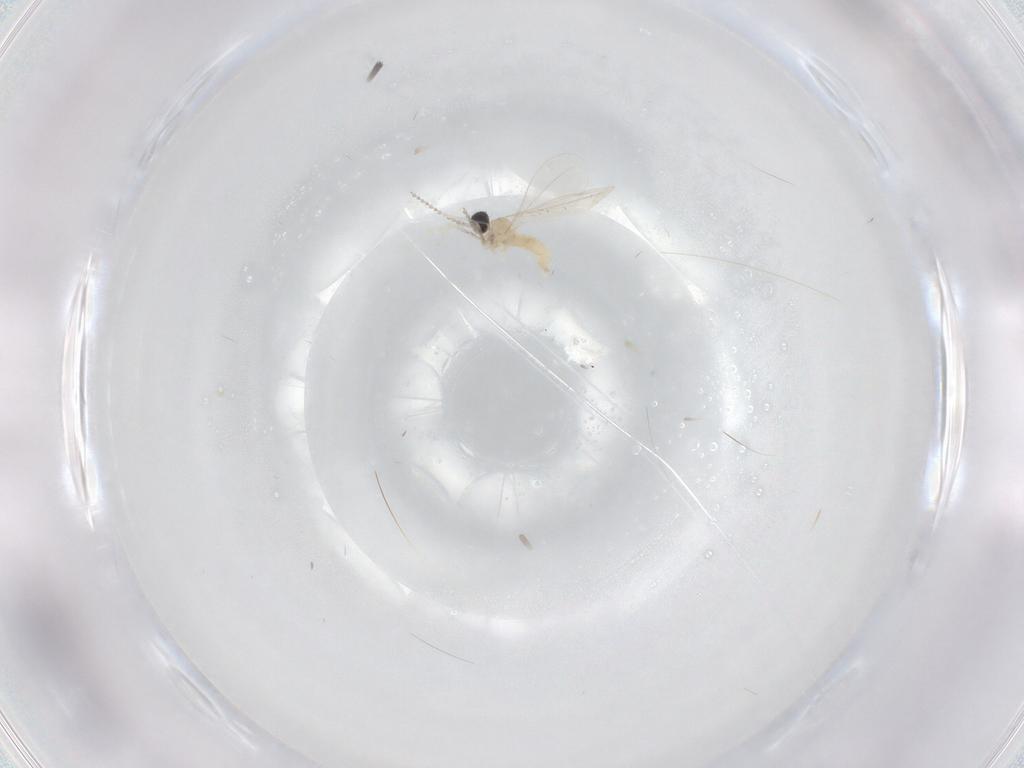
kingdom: Animalia
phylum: Arthropoda
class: Insecta
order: Diptera
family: Cecidomyiidae
